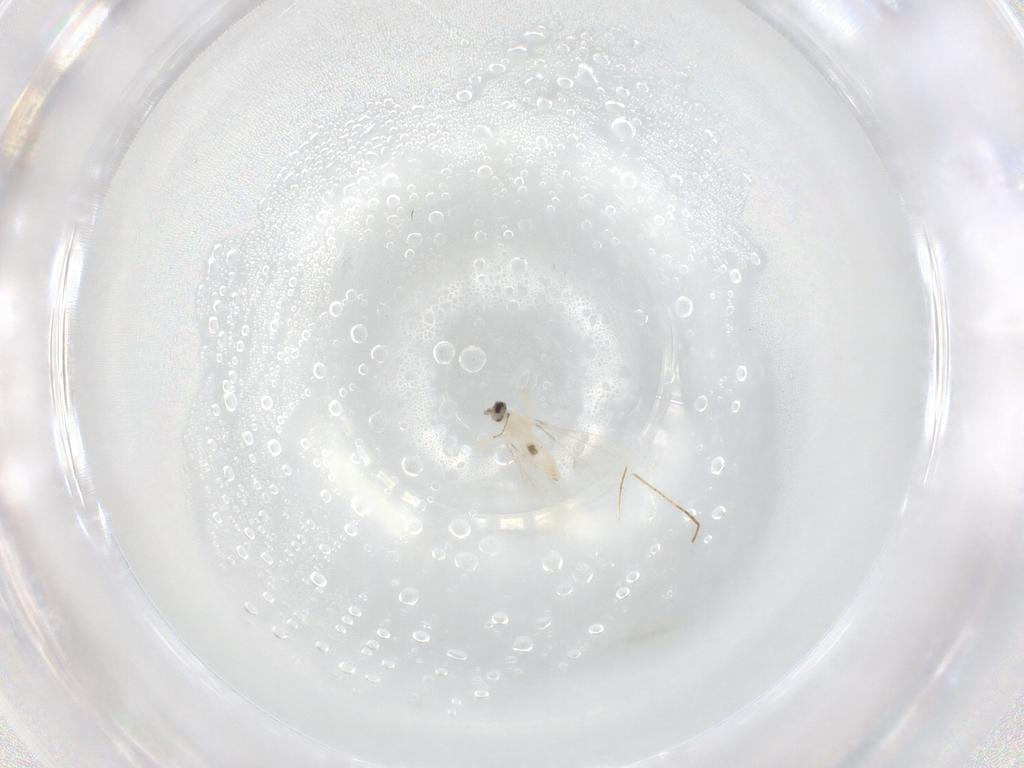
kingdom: Animalia
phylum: Arthropoda
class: Insecta
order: Diptera
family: Cecidomyiidae
